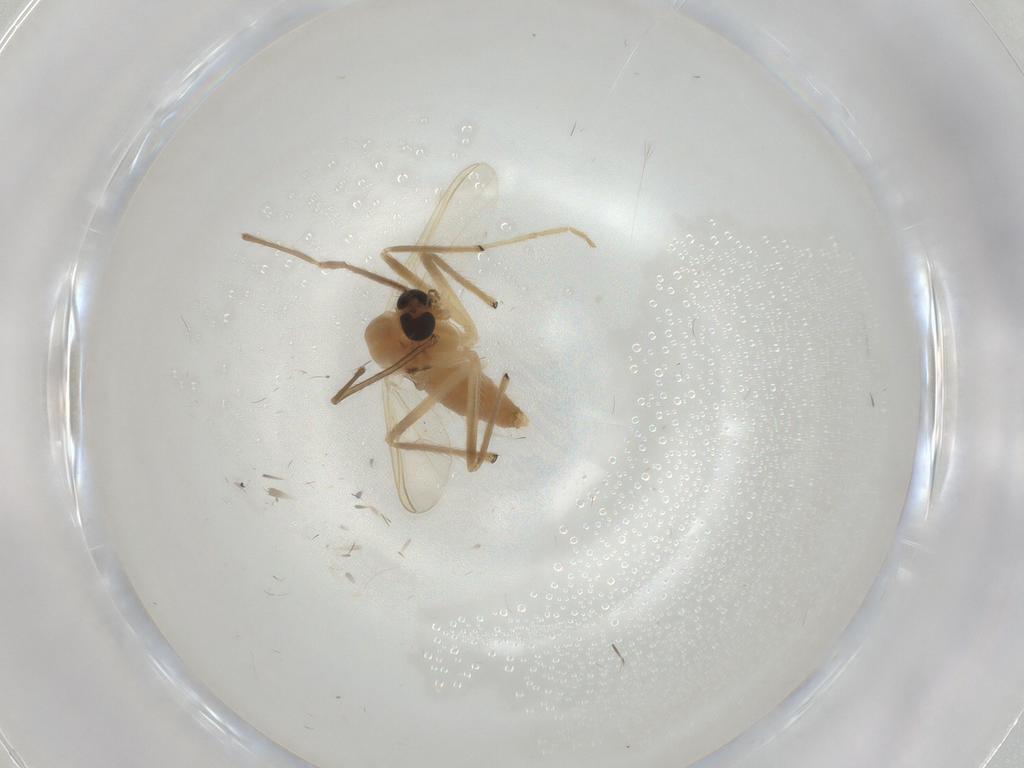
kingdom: Animalia
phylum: Arthropoda
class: Insecta
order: Diptera
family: Chironomidae
